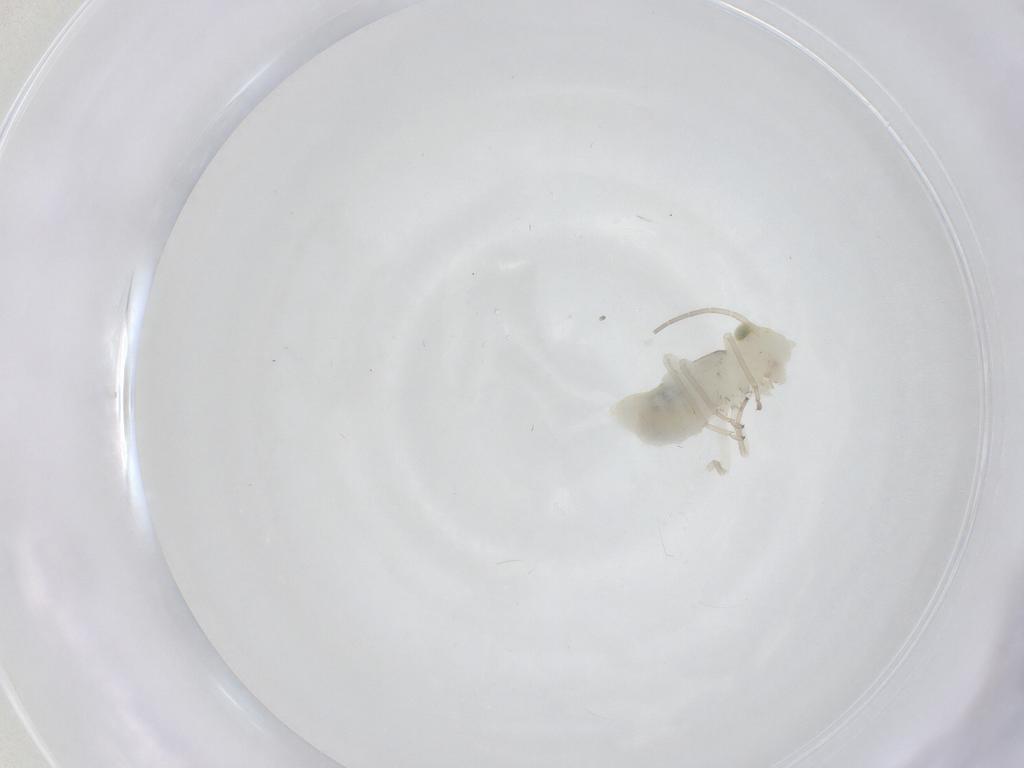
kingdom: Animalia
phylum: Arthropoda
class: Insecta
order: Psocodea
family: Caeciliusidae
